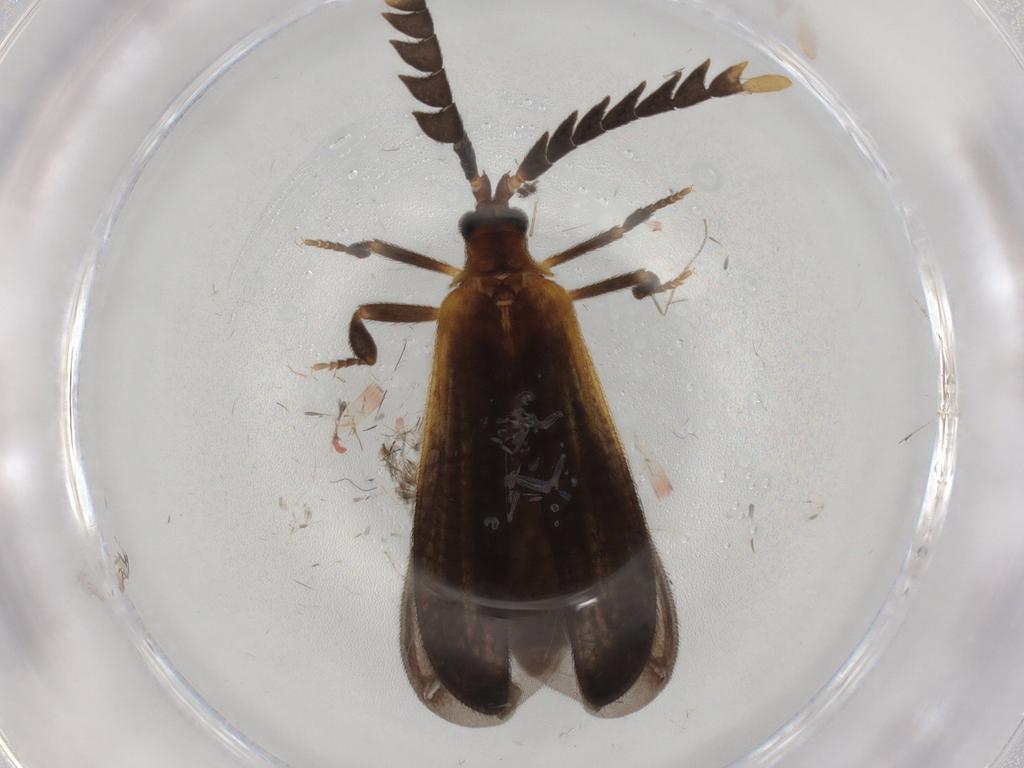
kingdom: Animalia
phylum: Arthropoda
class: Insecta
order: Coleoptera
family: Lycidae
